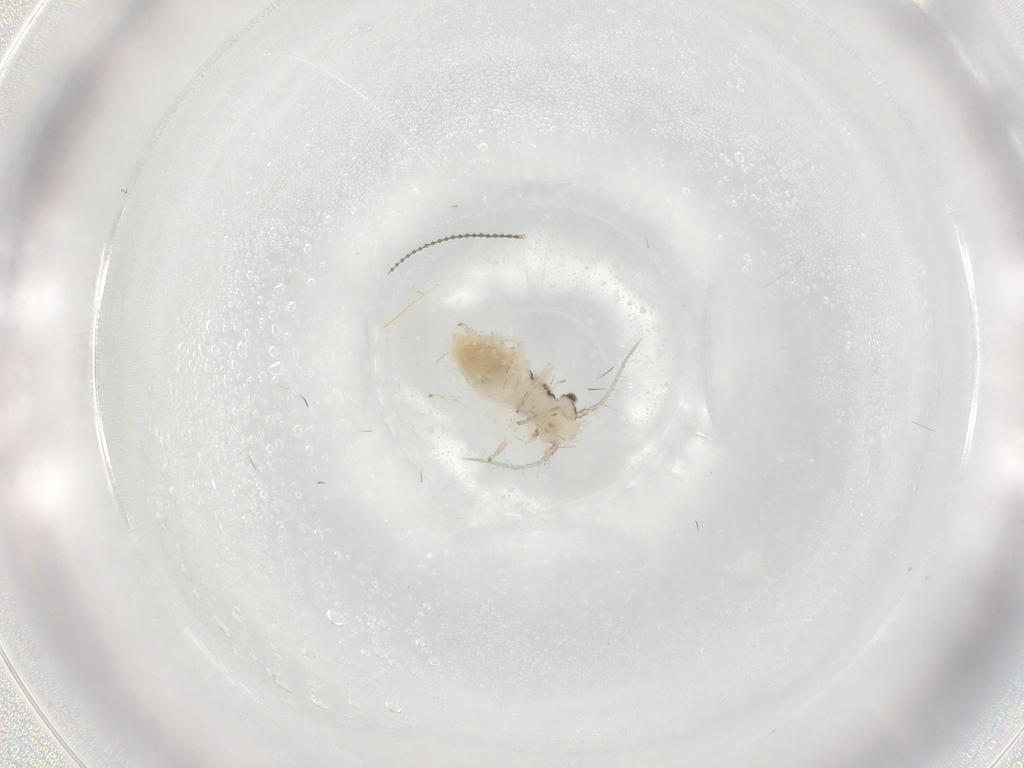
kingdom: Animalia
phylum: Arthropoda
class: Insecta
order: Psocodea
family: Pseudocaeciliidae
